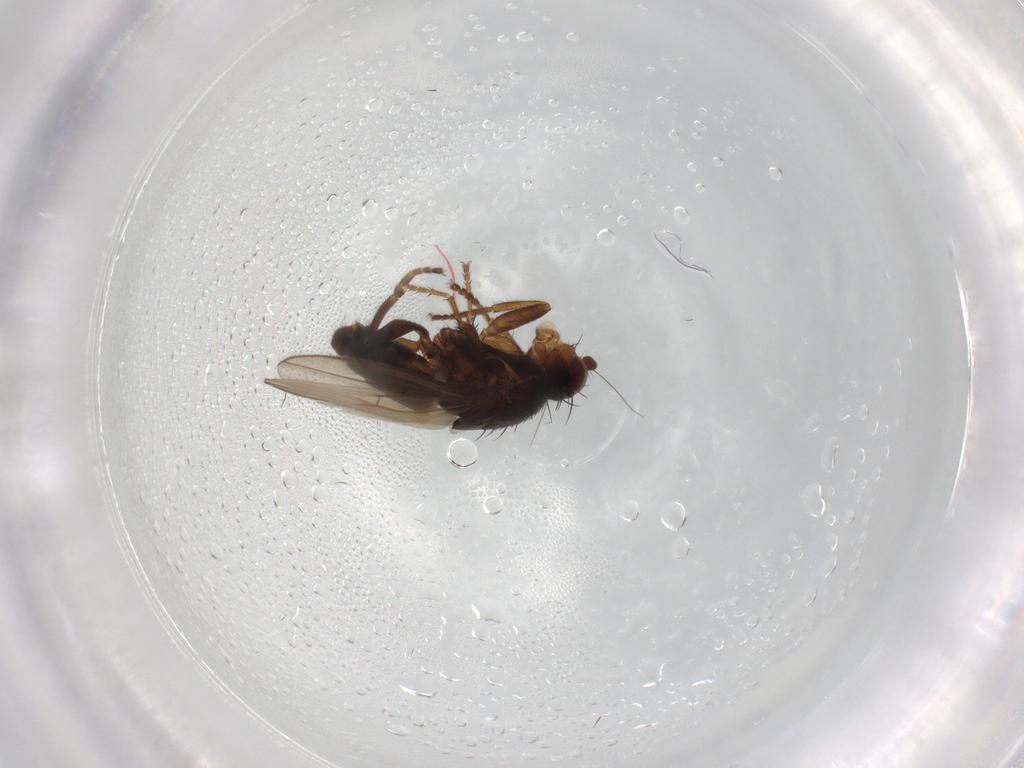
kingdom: Animalia
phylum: Arthropoda
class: Insecta
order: Diptera
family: Sphaeroceridae
